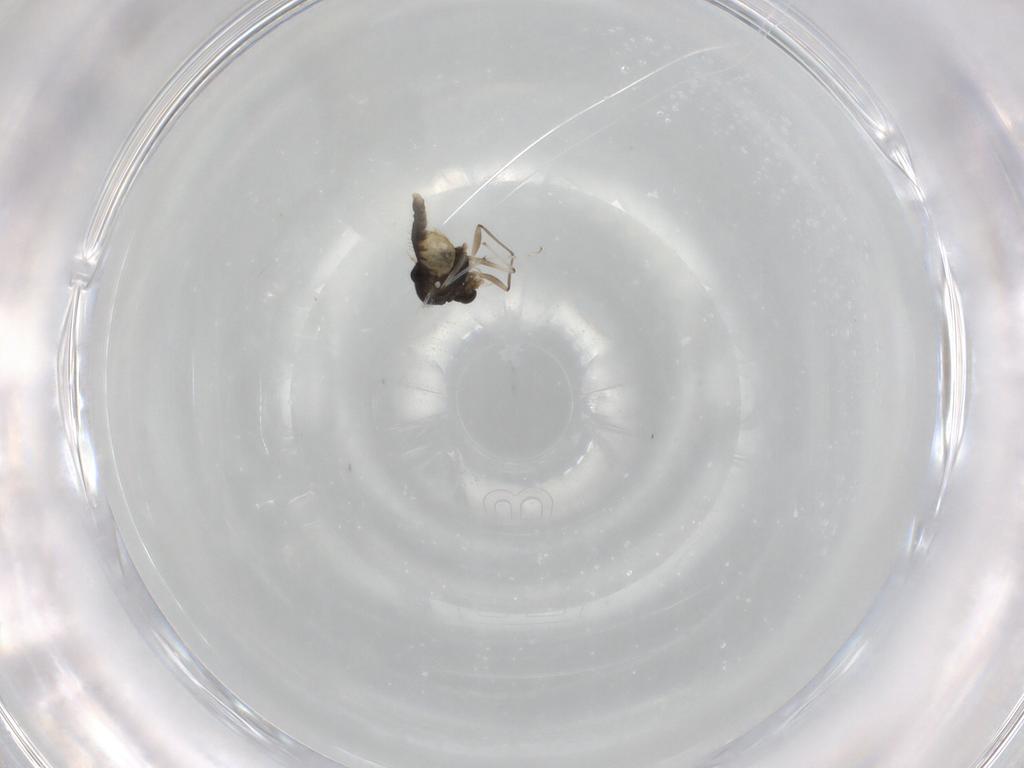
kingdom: Animalia
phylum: Arthropoda
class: Insecta
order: Diptera
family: Chironomidae
